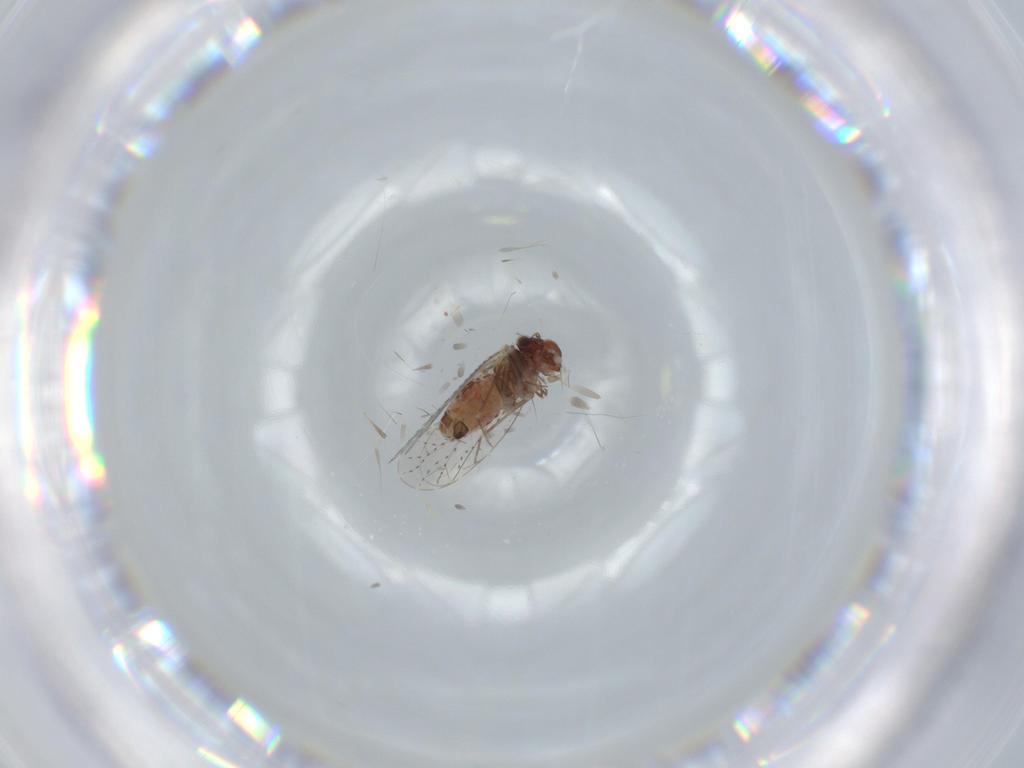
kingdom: Animalia
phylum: Arthropoda
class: Insecta
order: Psocodea
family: Musapsocidae
